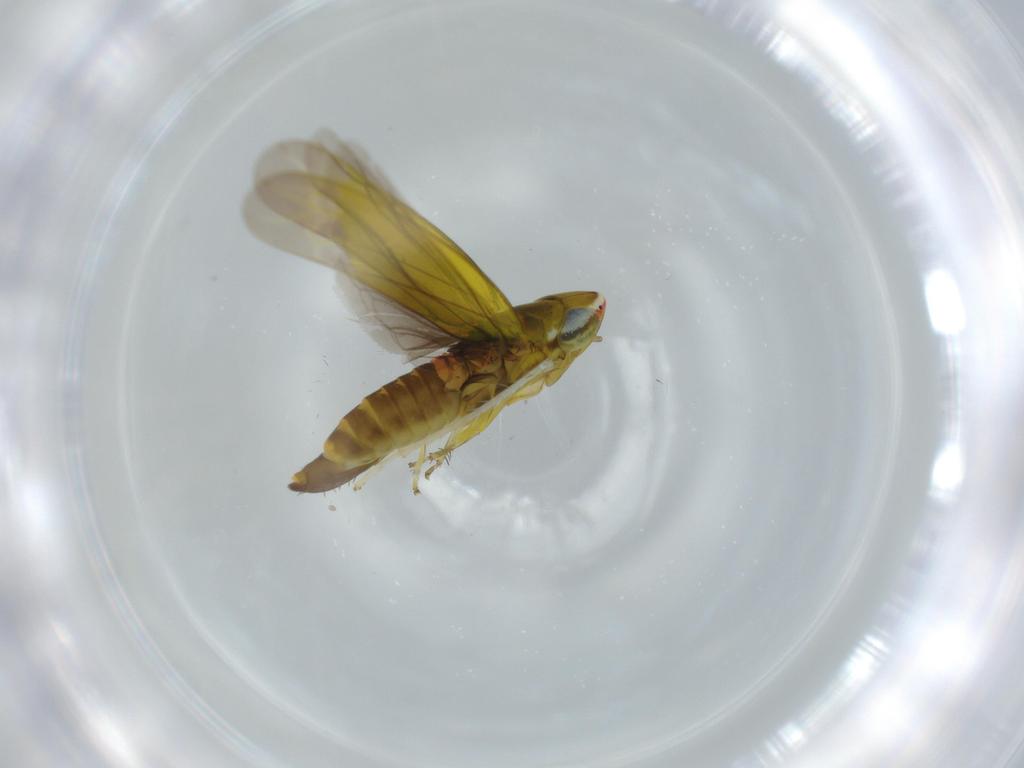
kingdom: Animalia
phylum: Arthropoda
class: Insecta
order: Hemiptera
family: Cicadellidae
